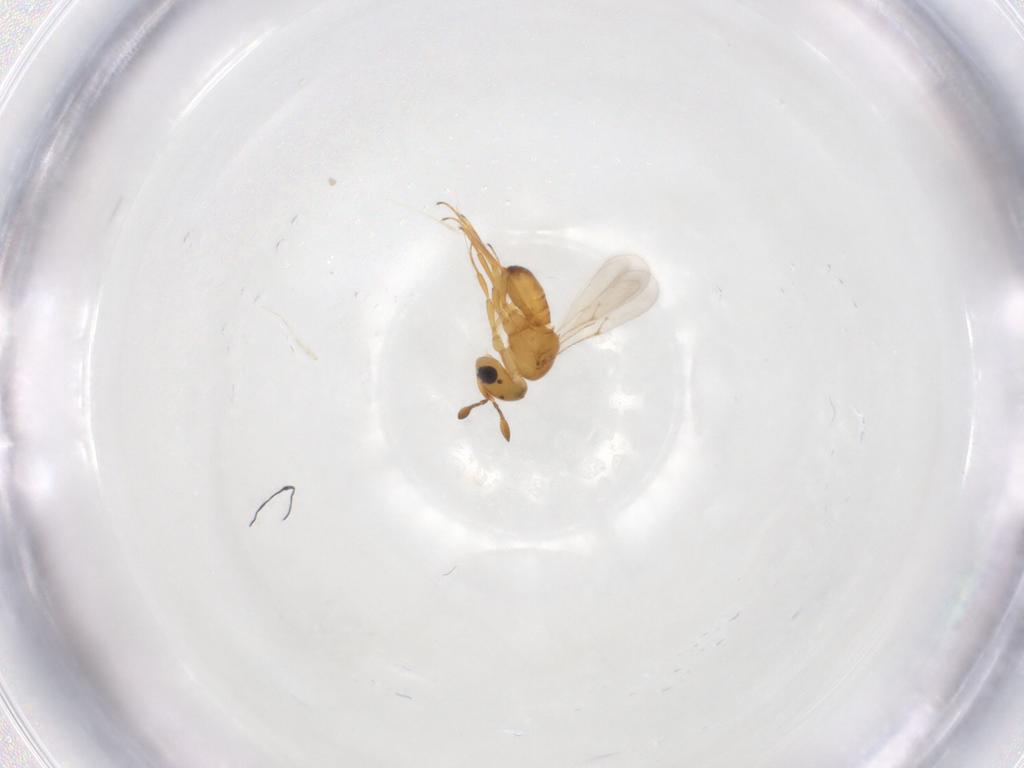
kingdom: Animalia
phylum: Arthropoda
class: Insecta
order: Hymenoptera
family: Scelionidae
